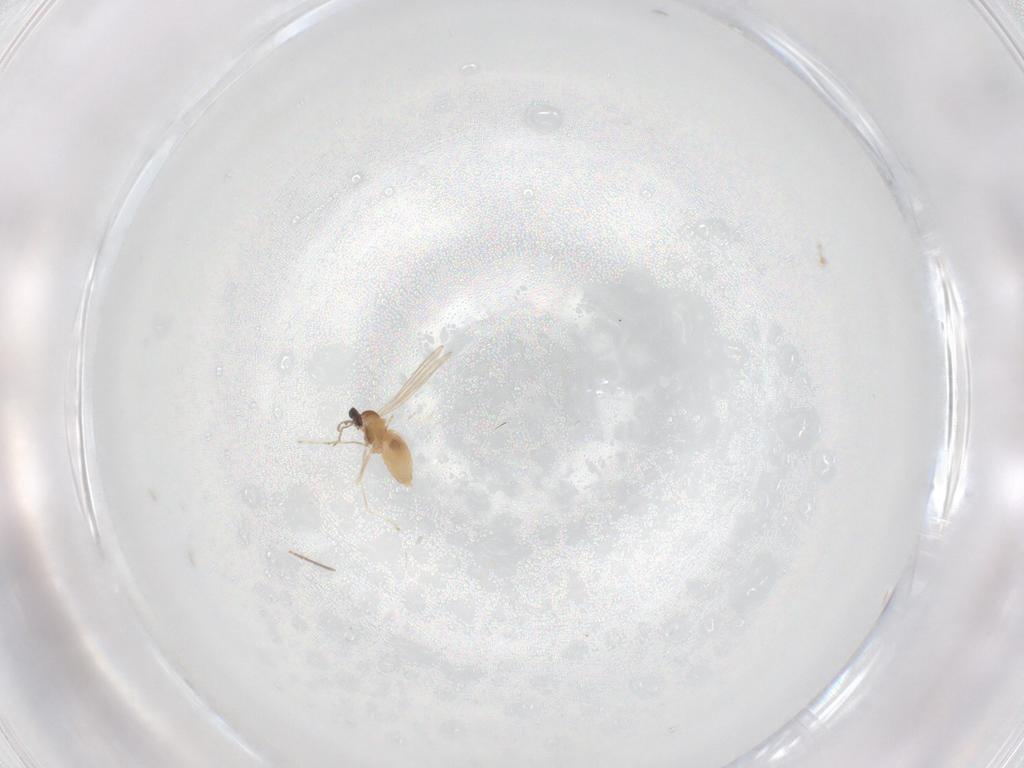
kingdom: Animalia
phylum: Arthropoda
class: Insecta
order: Diptera
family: Cecidomyiidae
